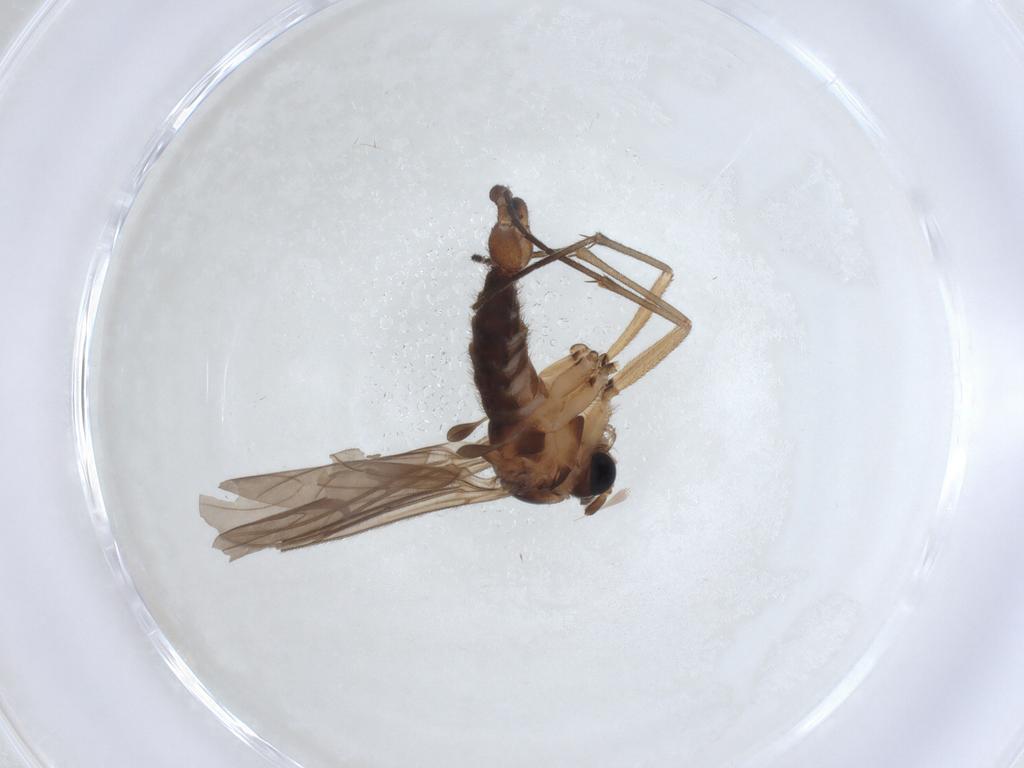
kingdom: Animalia
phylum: Arthropoda
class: Insecta
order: Diptera
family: Sciaridae
